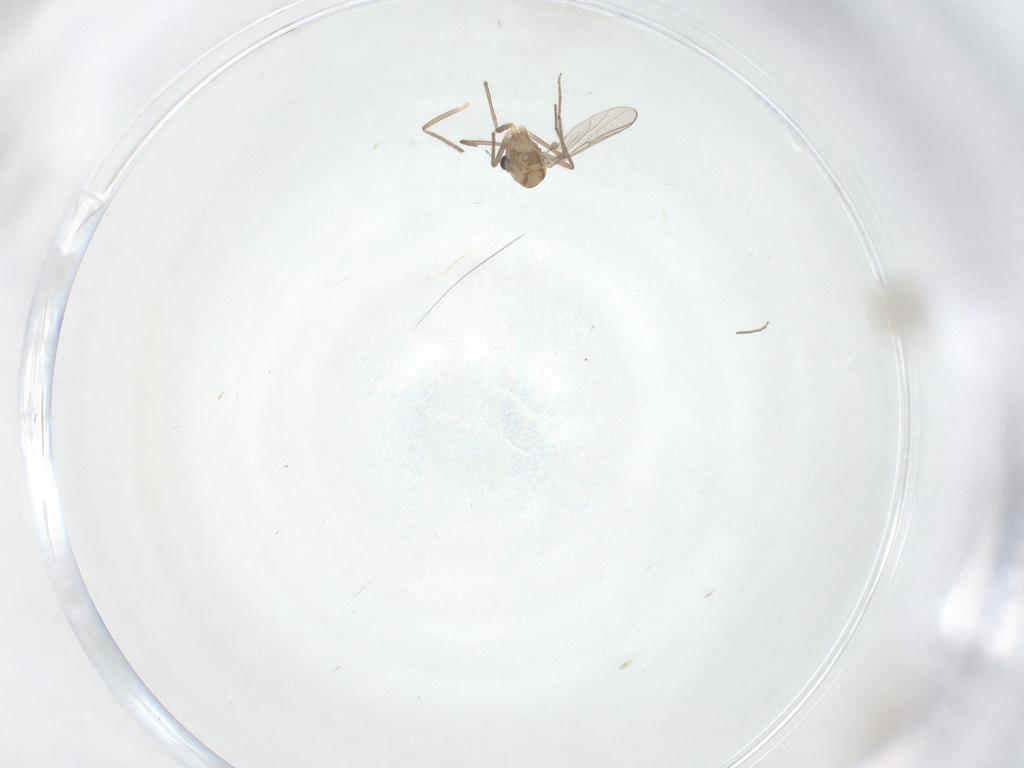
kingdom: Animalia
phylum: Arthropoda
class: Insecta
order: Diptera
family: Chironomidae
